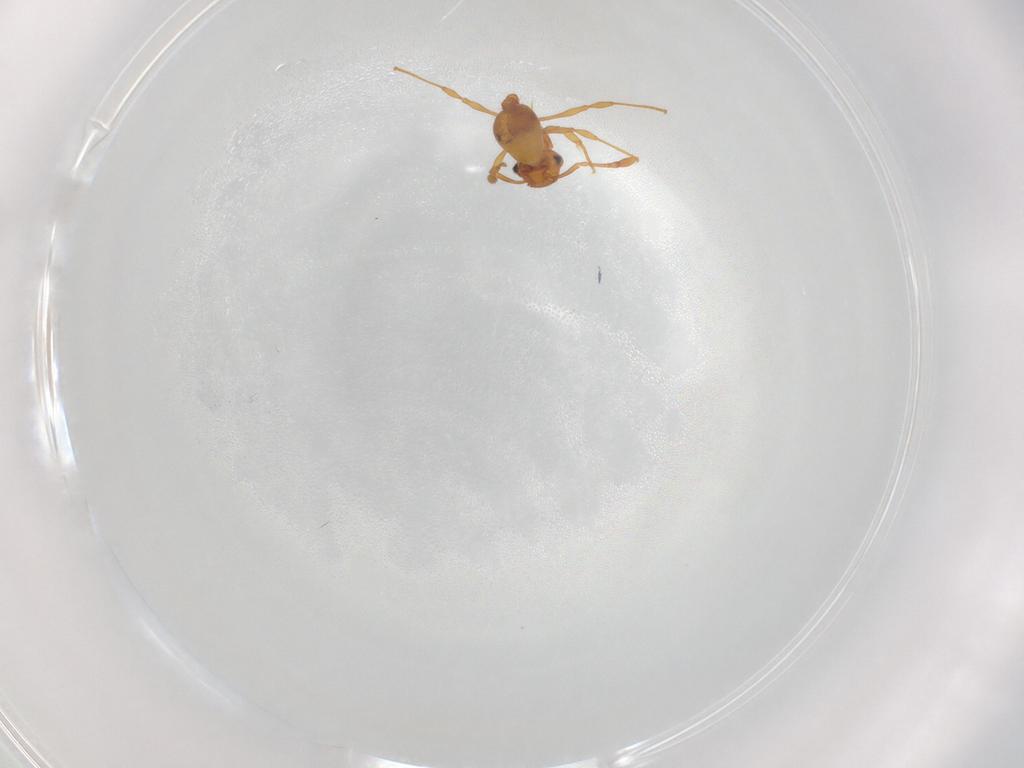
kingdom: Animalia
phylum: Arthropoda
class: Insecta
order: Hymenoptera
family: Formicidae
